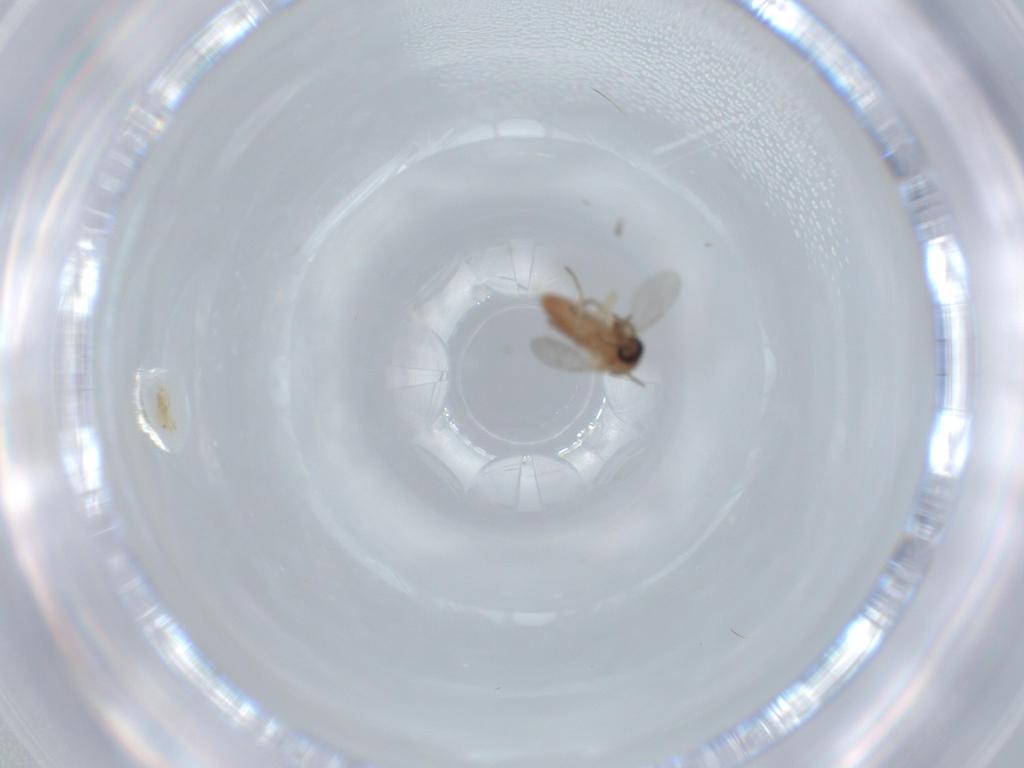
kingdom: Animalia
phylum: Arthropoda
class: Insecta
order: Diptera
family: Ceratopogonidae
